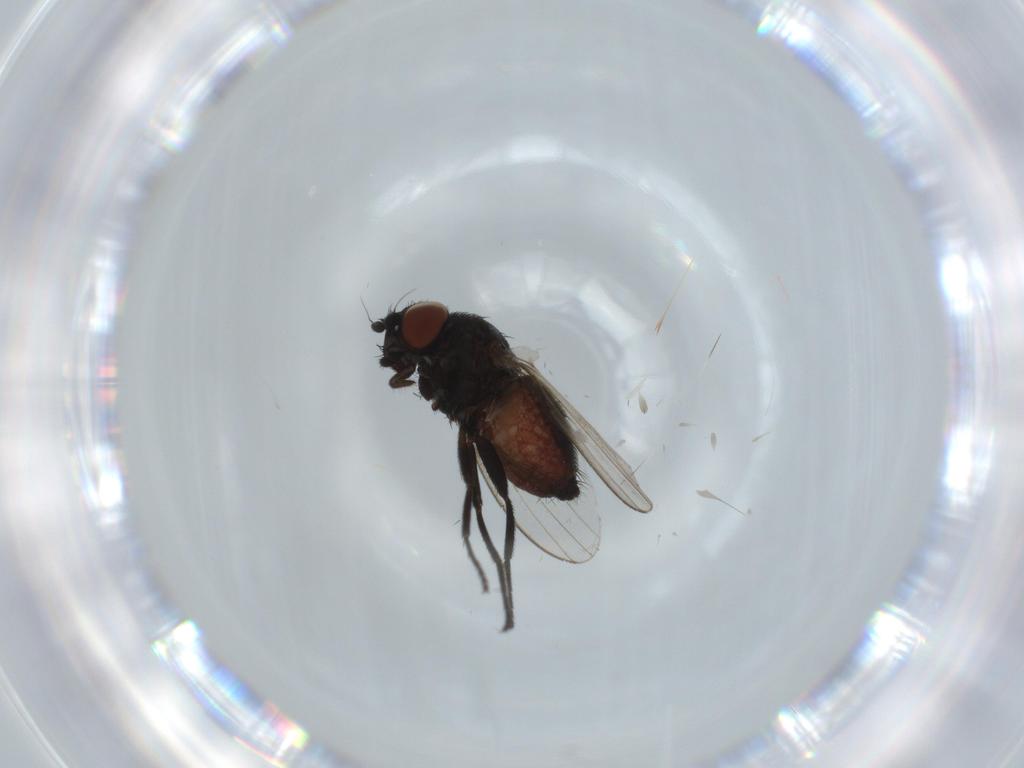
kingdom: Animalia
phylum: Arthropoda
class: Insecta
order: Diptera
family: Milichiidae
